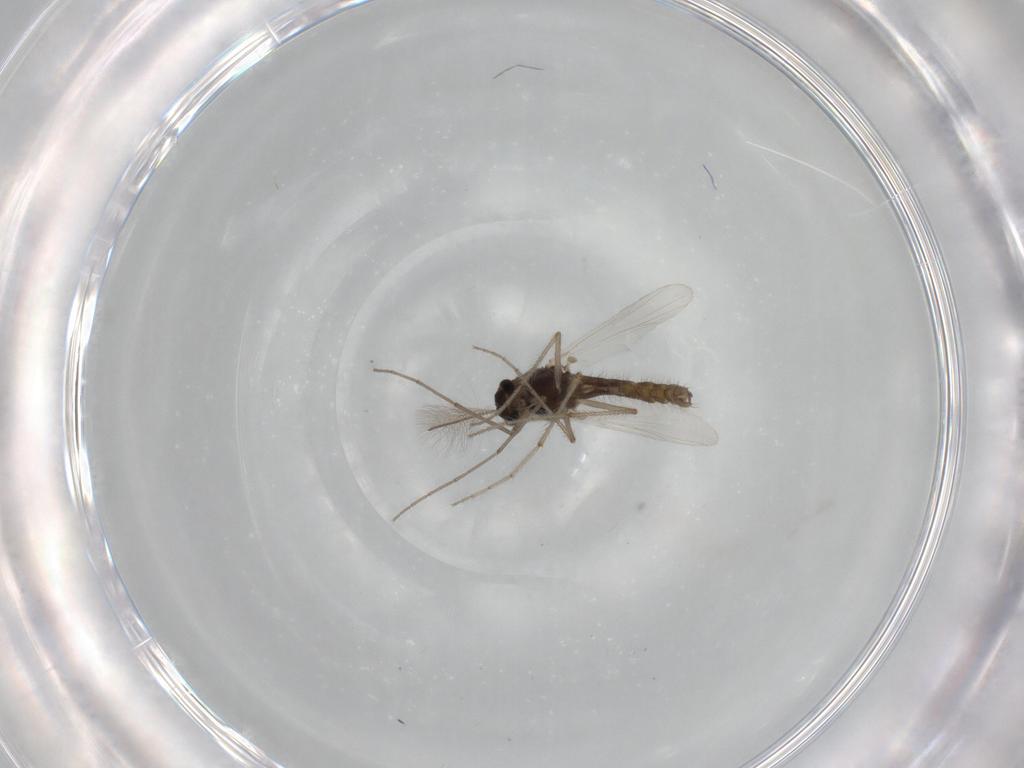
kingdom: Animalia
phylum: Arthropoda
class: Insecta
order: Diptera
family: Chironomidae
